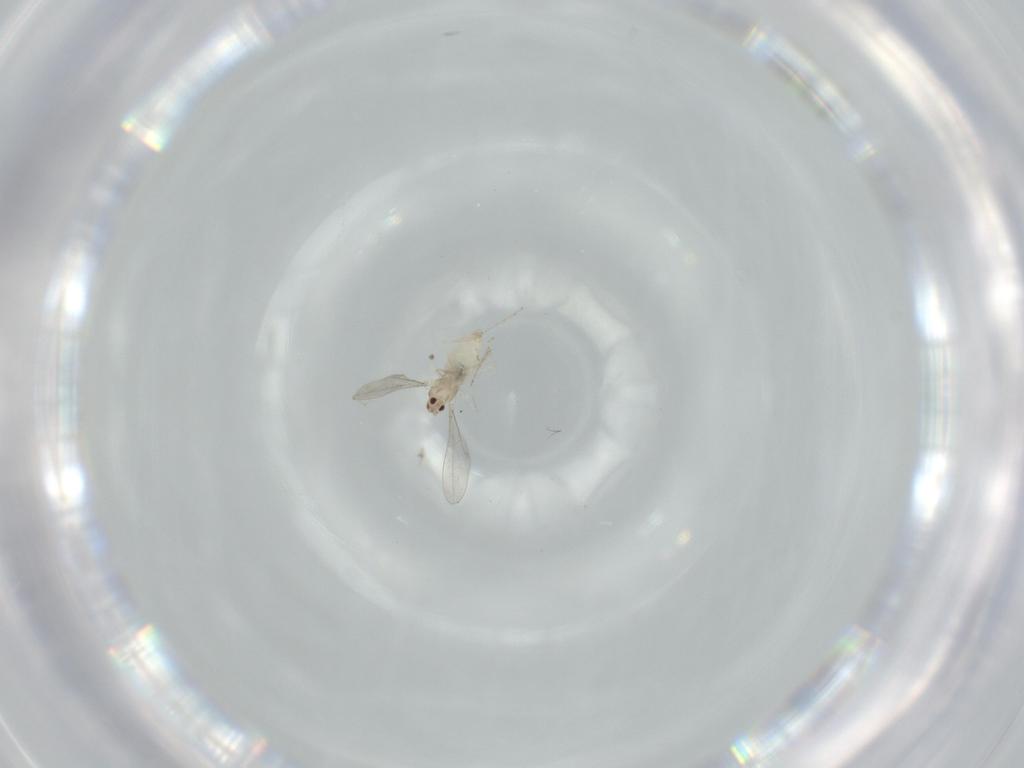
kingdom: Animalia
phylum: Arthropoda
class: Insecta
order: Diptera
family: Cecidomyiidae
